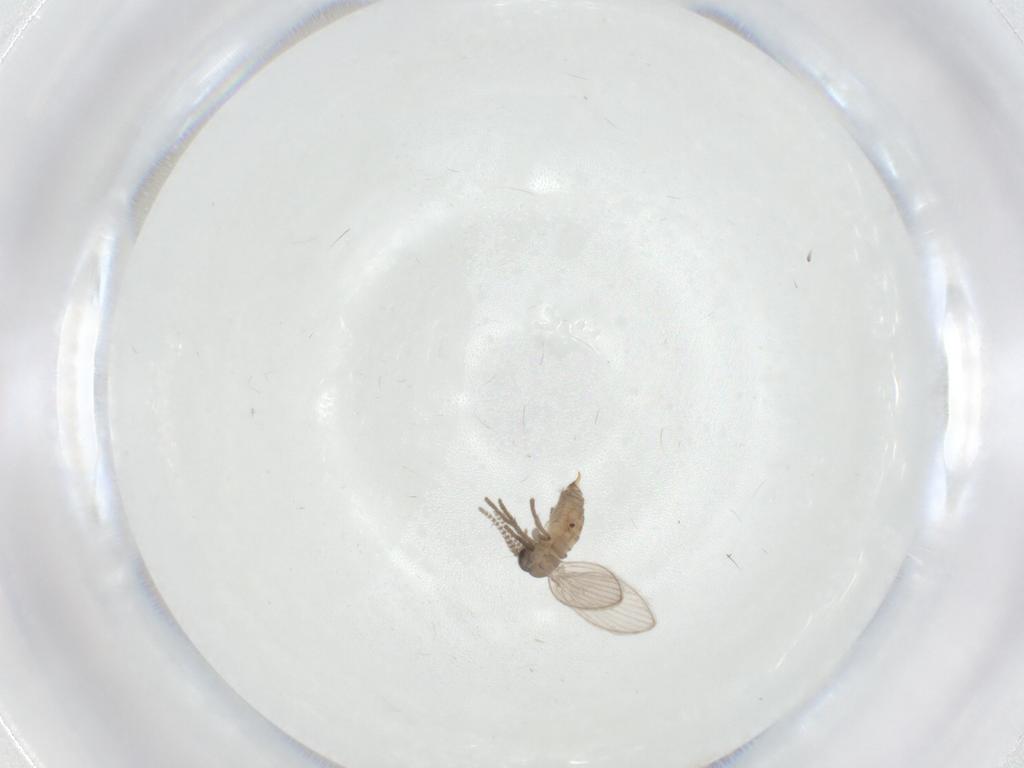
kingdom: Animalia
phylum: Arthropoda
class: Insecta
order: Diptera
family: Psychodidae
